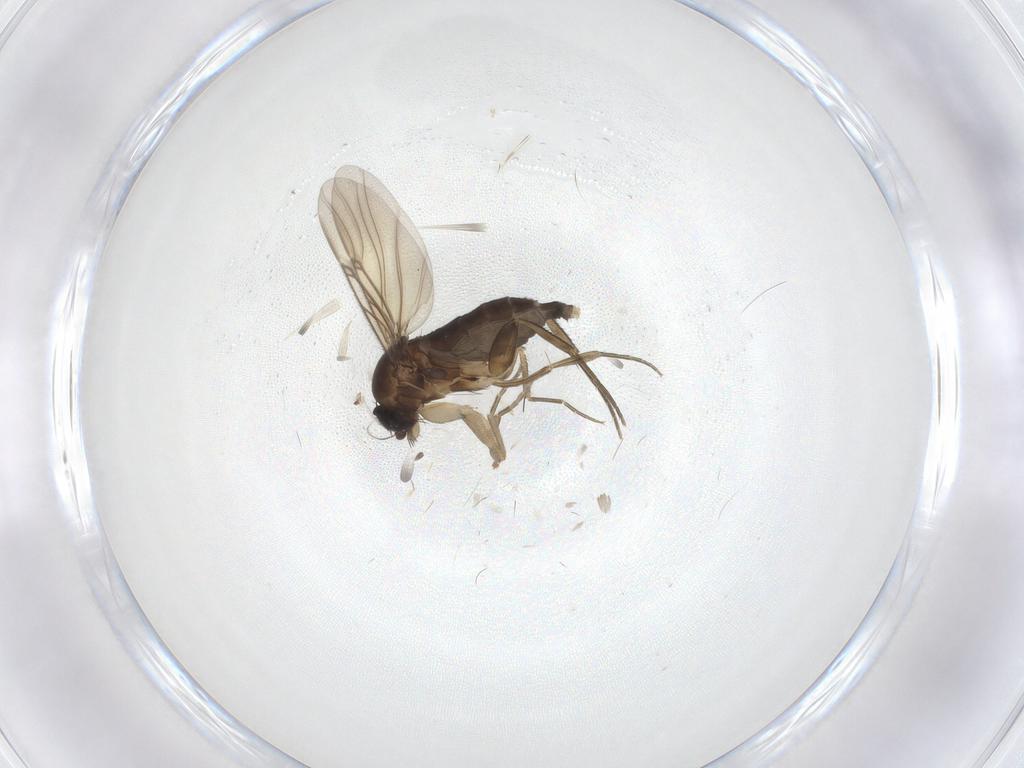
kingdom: Animalia
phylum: Arthropoda
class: Insecta
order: Diptera
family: Phoridae
